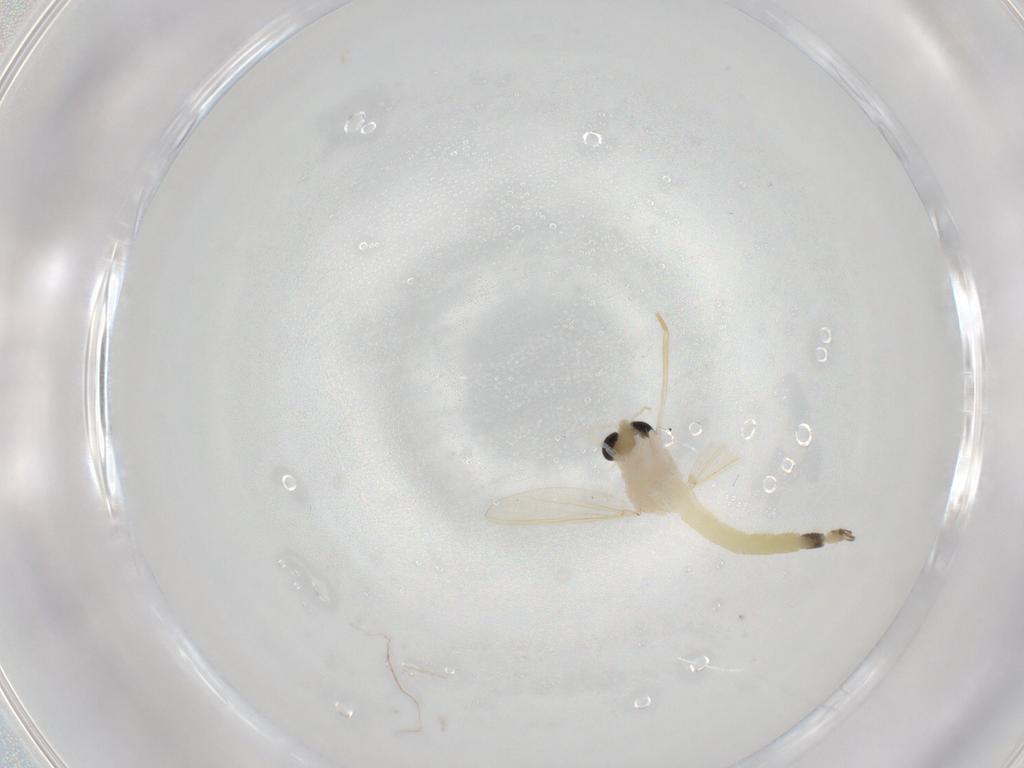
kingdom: Animalia
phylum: Arthropoda
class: Insecta
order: Diptera
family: Chironomidae
